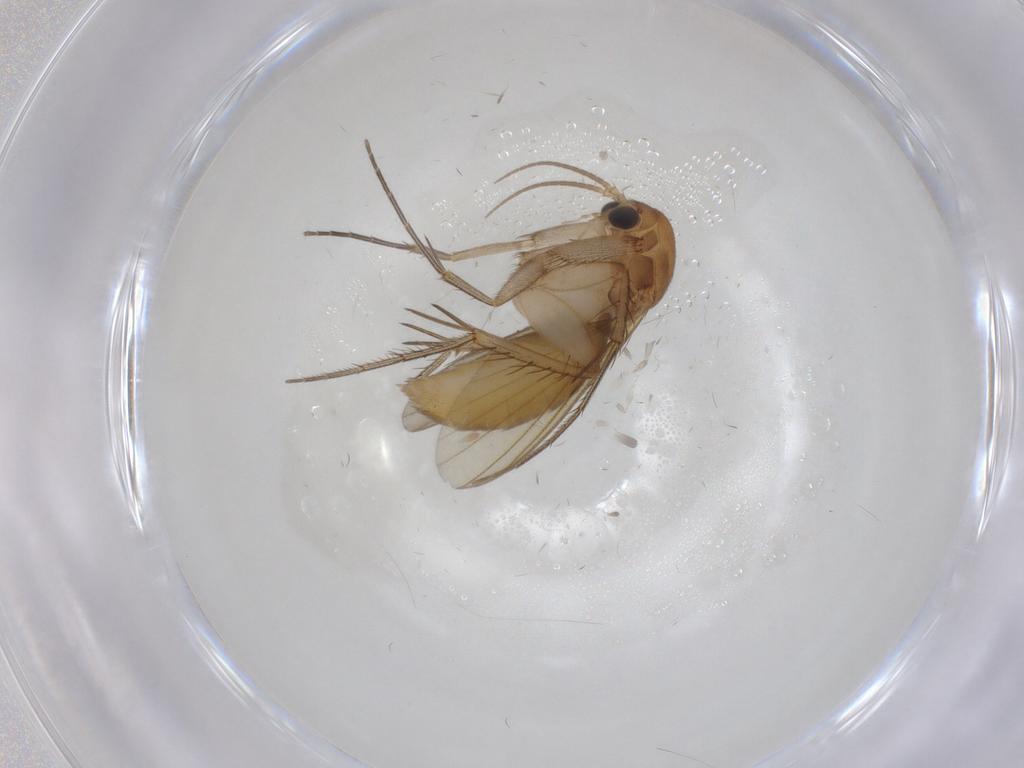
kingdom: Animalia
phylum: Arthropoda
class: Insecta
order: Diptera
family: Mycetophilidae
